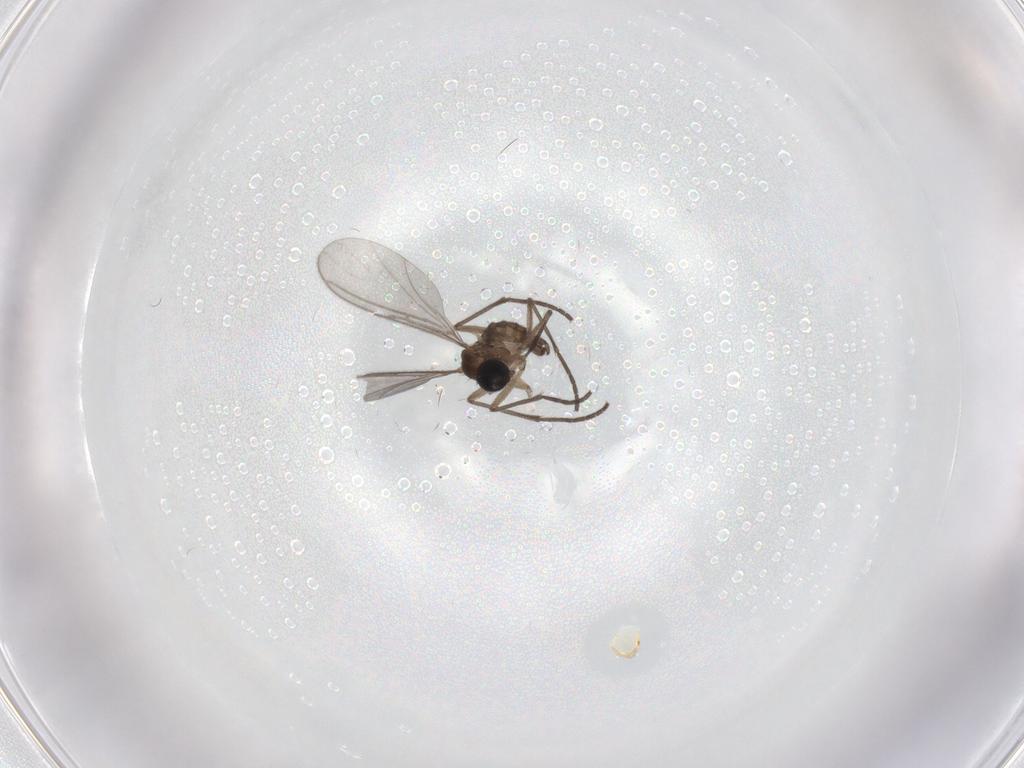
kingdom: Animalia
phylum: Arthropoda
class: Insecta
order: Diptera
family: Sciaridae
